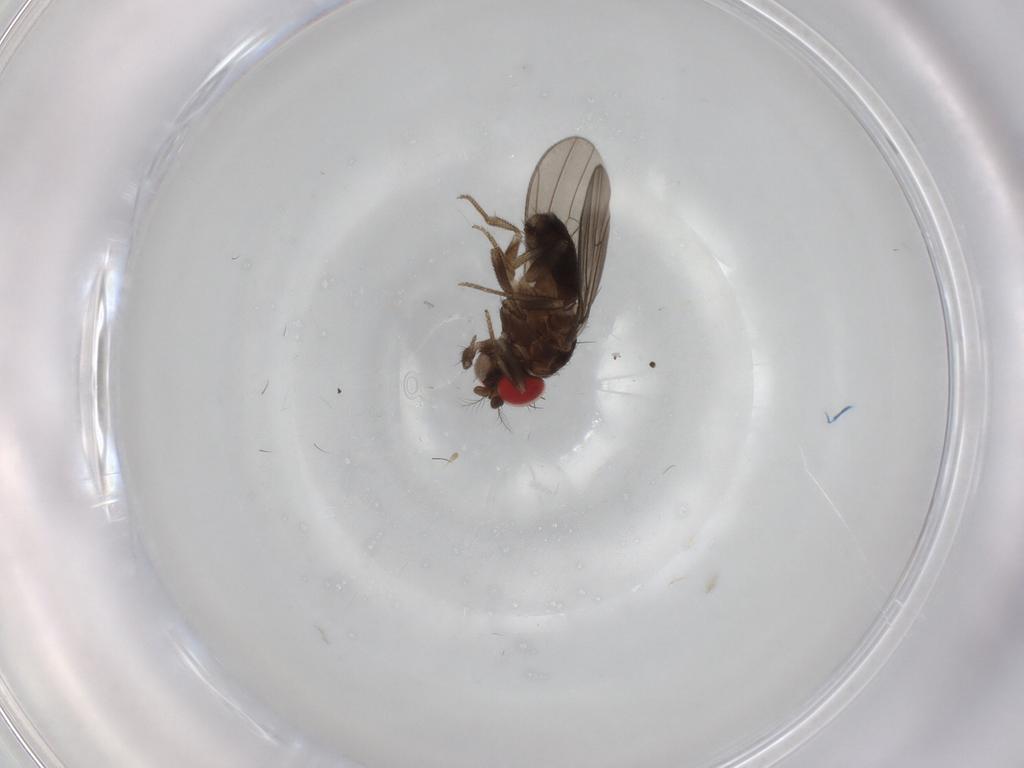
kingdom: Animalia
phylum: Arthropoda
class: Insecta
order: Diptera
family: Drosophilidae
